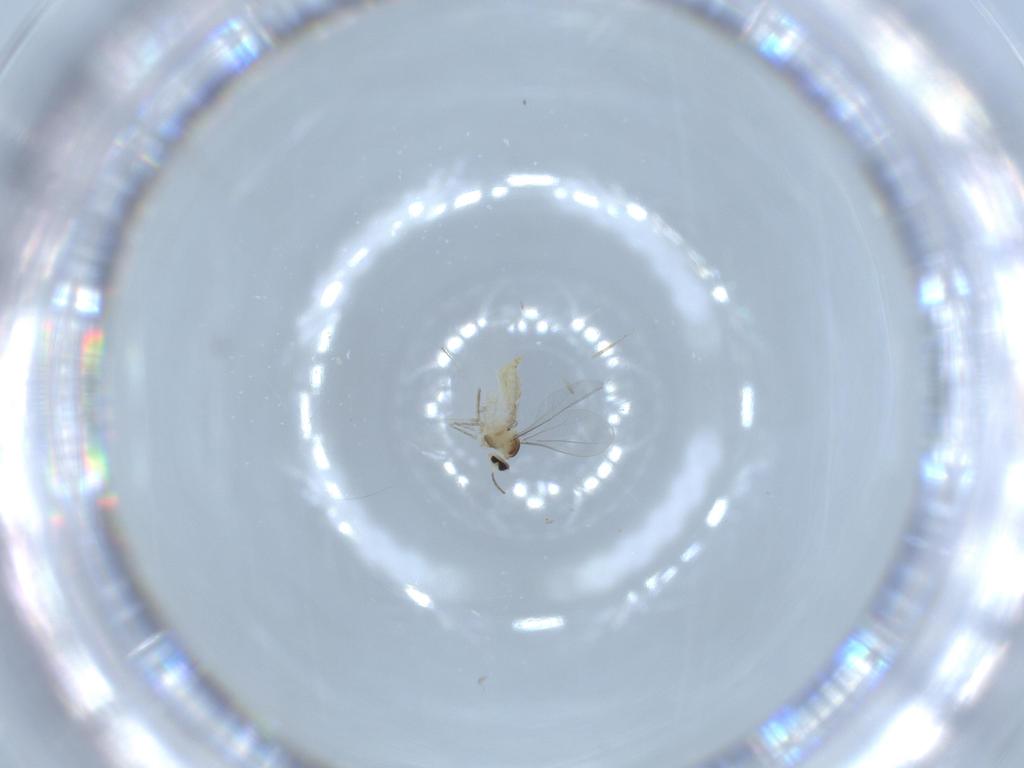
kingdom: Animalia
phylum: Arthropoda
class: Insecta
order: Diptera
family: Cecidomyiidae
